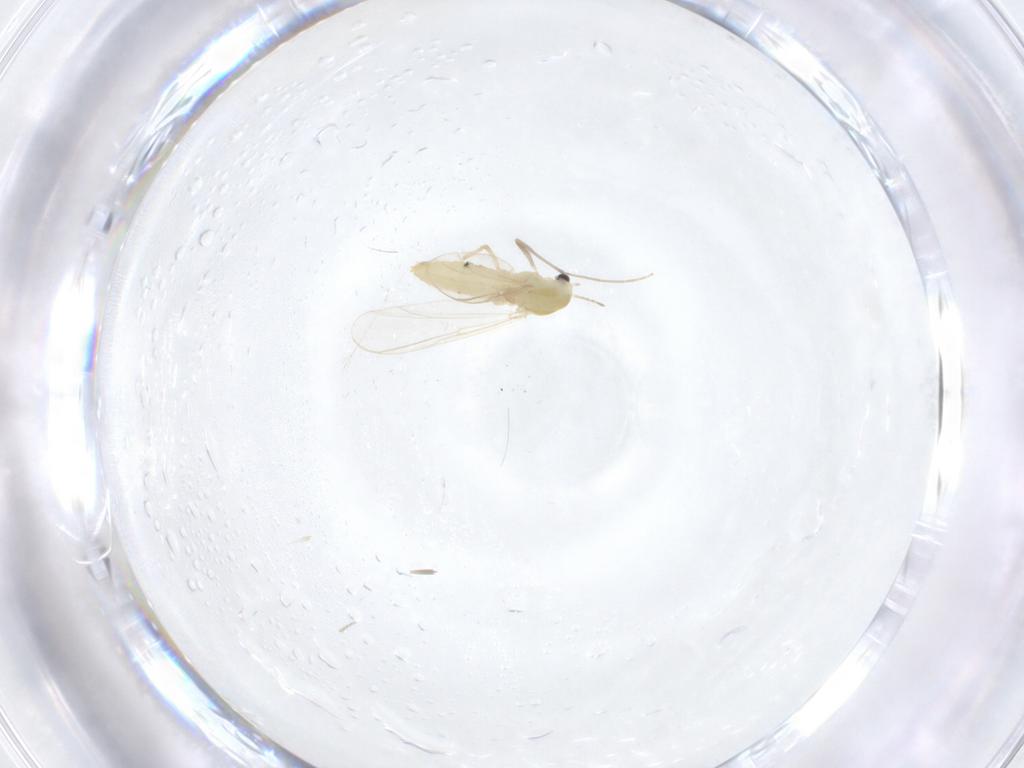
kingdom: Animalia
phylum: Arthropoda
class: Insecta
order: Diptera
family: Chironomidae
